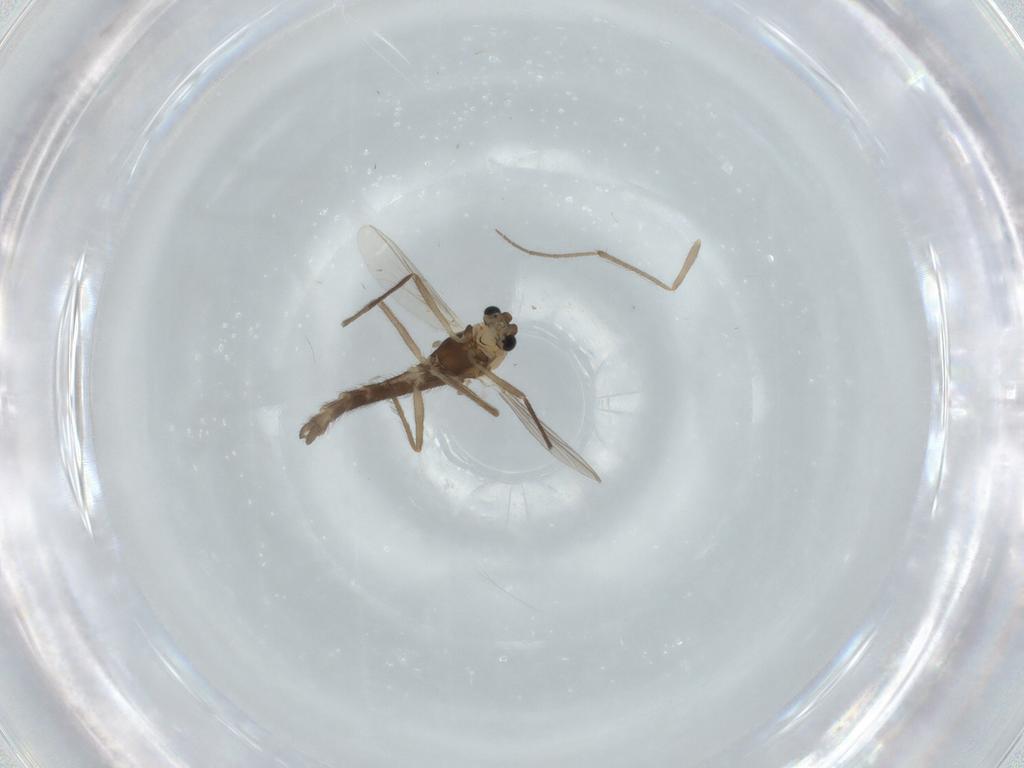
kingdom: Animalia
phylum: Arthropoda
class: Insecta
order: Diptera
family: Chironomidae
